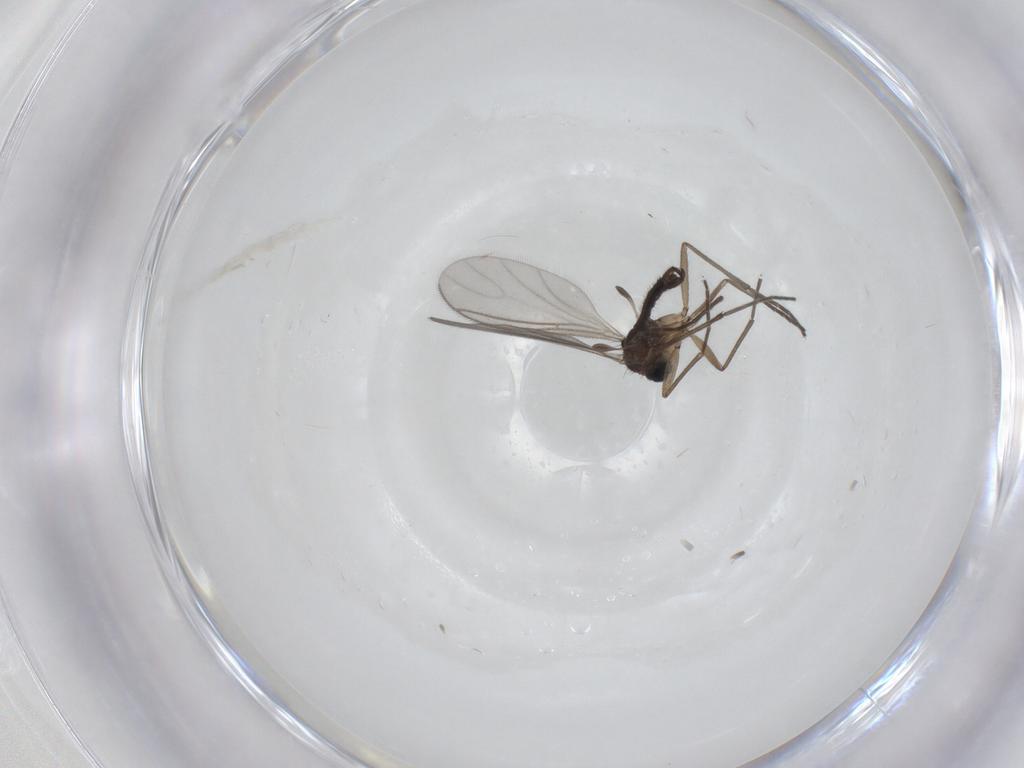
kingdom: Animalia
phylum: Arthropoda
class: Insecta
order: Diptera
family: Sciaridae
